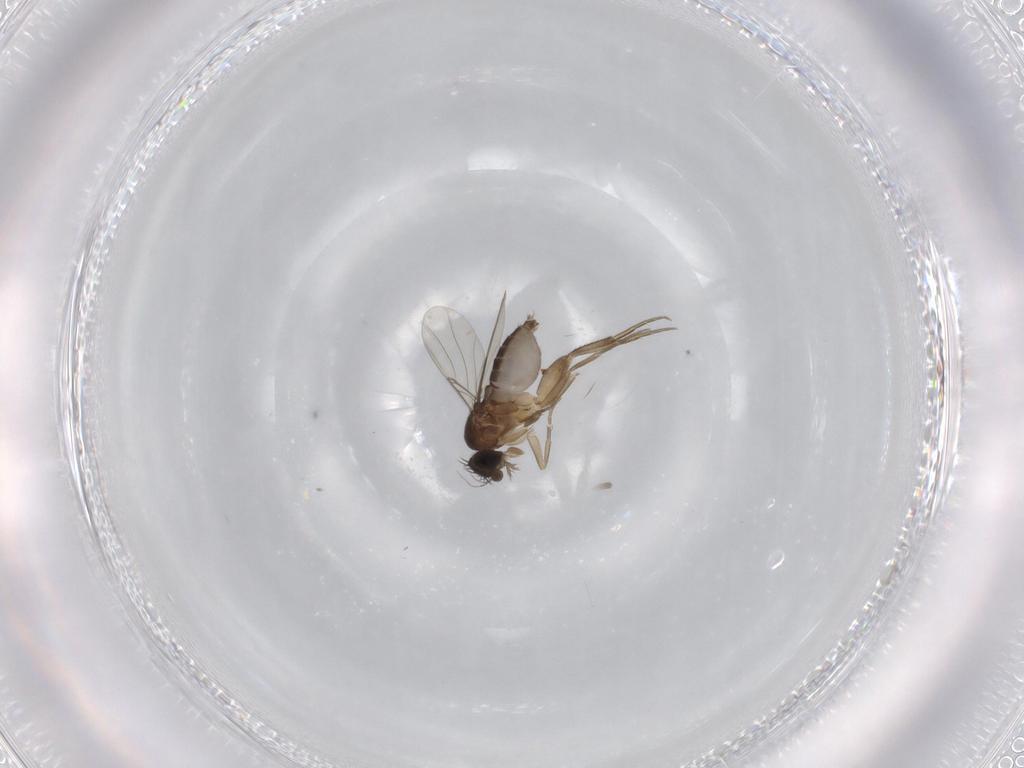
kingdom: Animalia
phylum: Arthropoda
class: Insecta
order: Diptera
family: Phoridae
